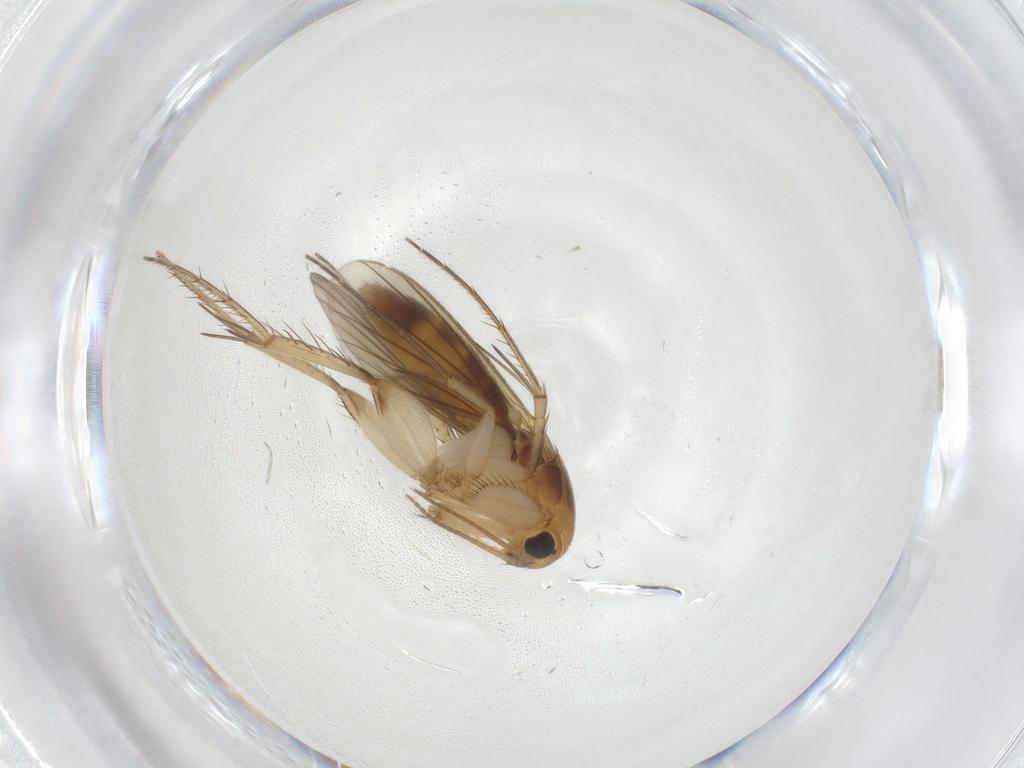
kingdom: Animalia
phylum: Arthropoda
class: Insecta
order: Diptera
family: Mycetophilidae
